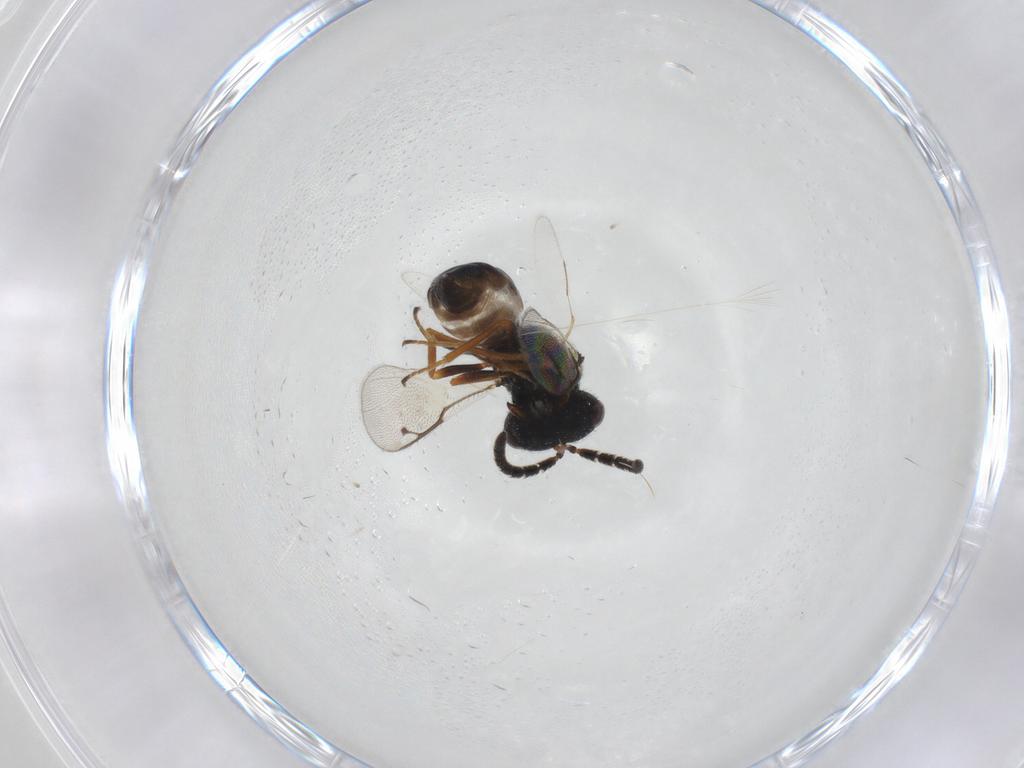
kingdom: Animalia
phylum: Arthropoda
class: Insecta
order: Hymenoptera
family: Pteromalidae
